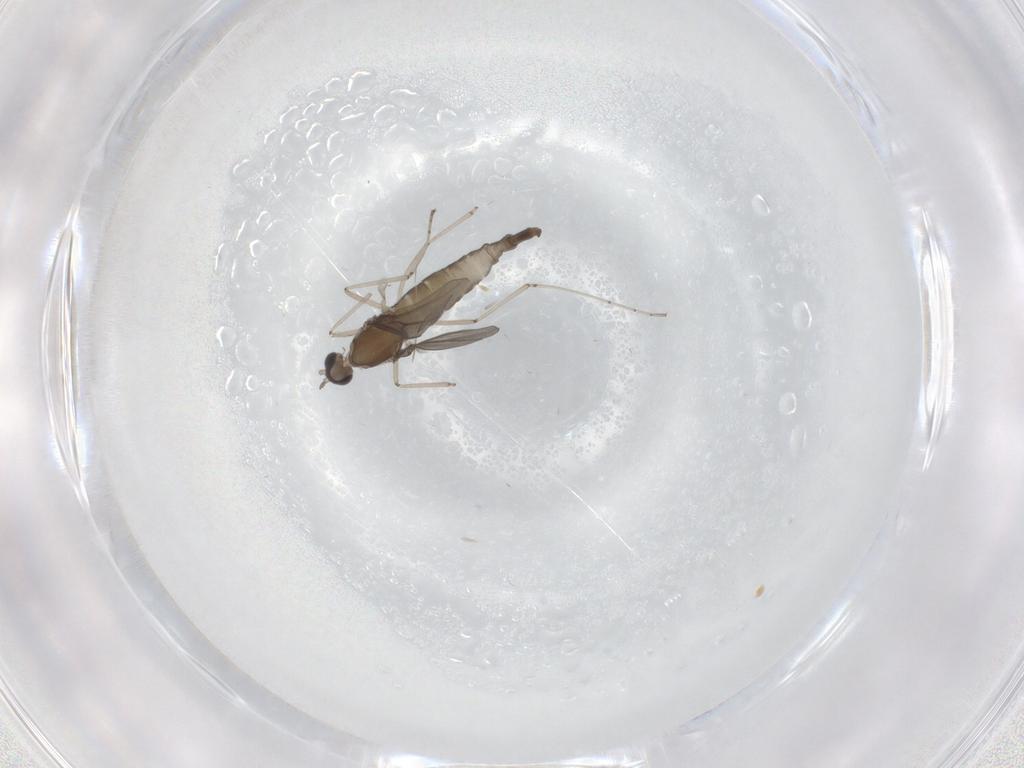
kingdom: Animalia
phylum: Arthropoda
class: Insecta
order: Diptera
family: Cecidomyiidae
